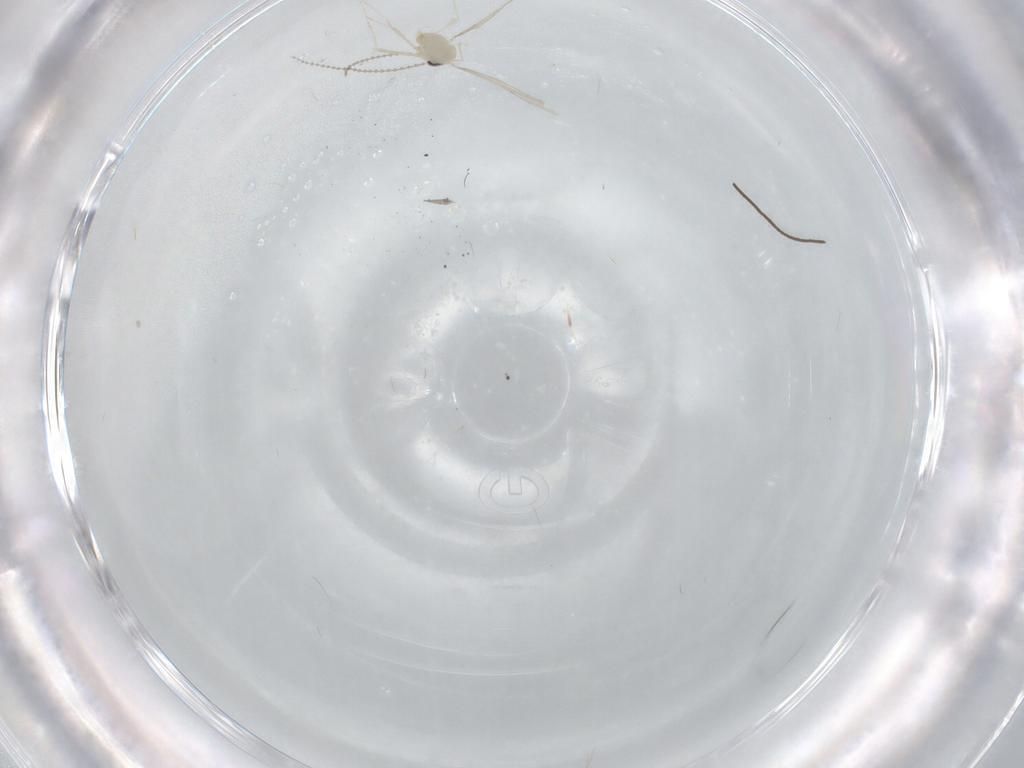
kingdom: Animalia
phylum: Arthropoda
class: Insecta
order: Diptera
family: Limoniidae
